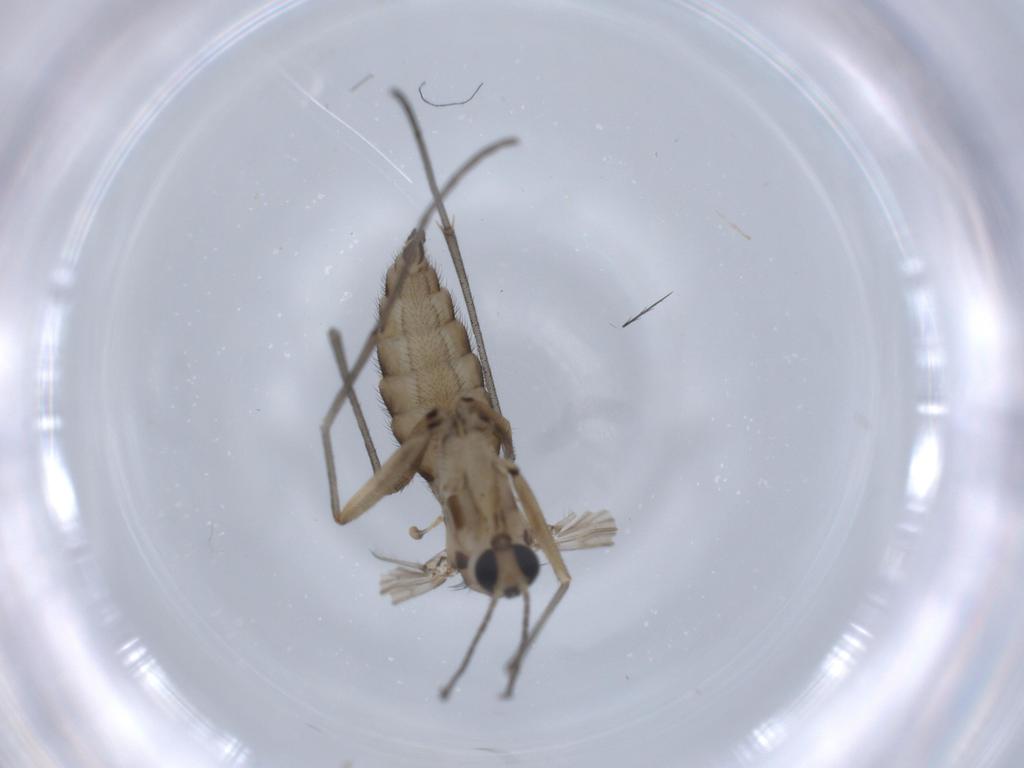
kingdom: Animalia
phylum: Arthropoda
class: Insecta
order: Diptera
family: Sciaridae
